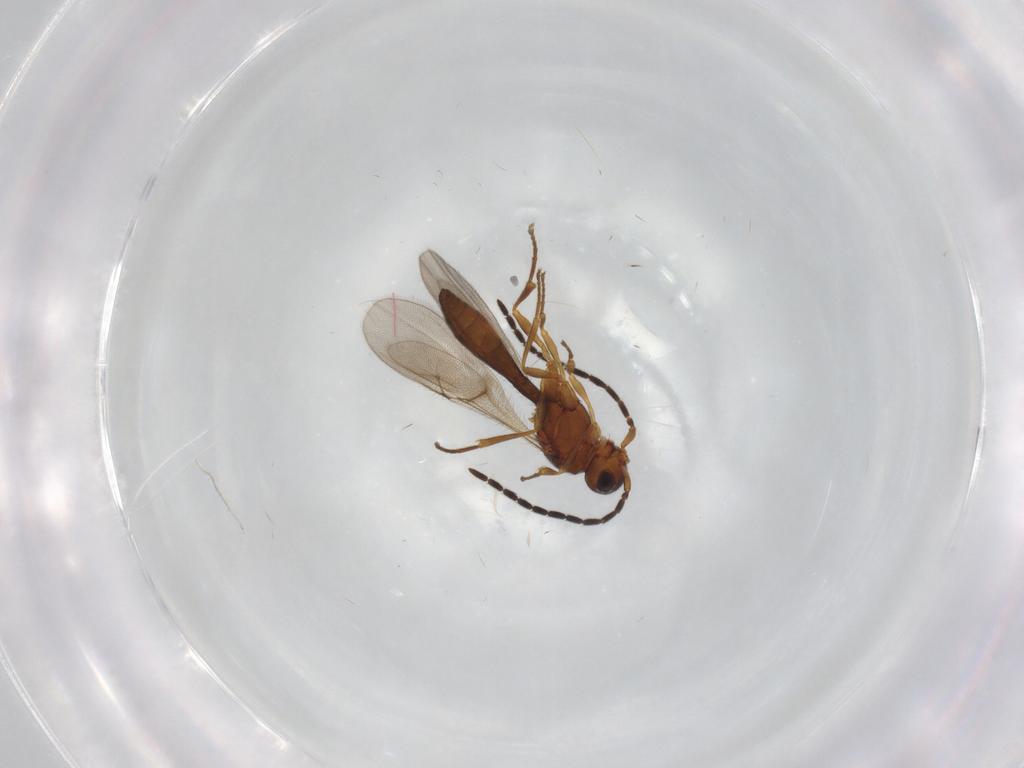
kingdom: Animalia
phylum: Arthropoda
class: Insecta
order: Hymenoptera
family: Scelionidae
